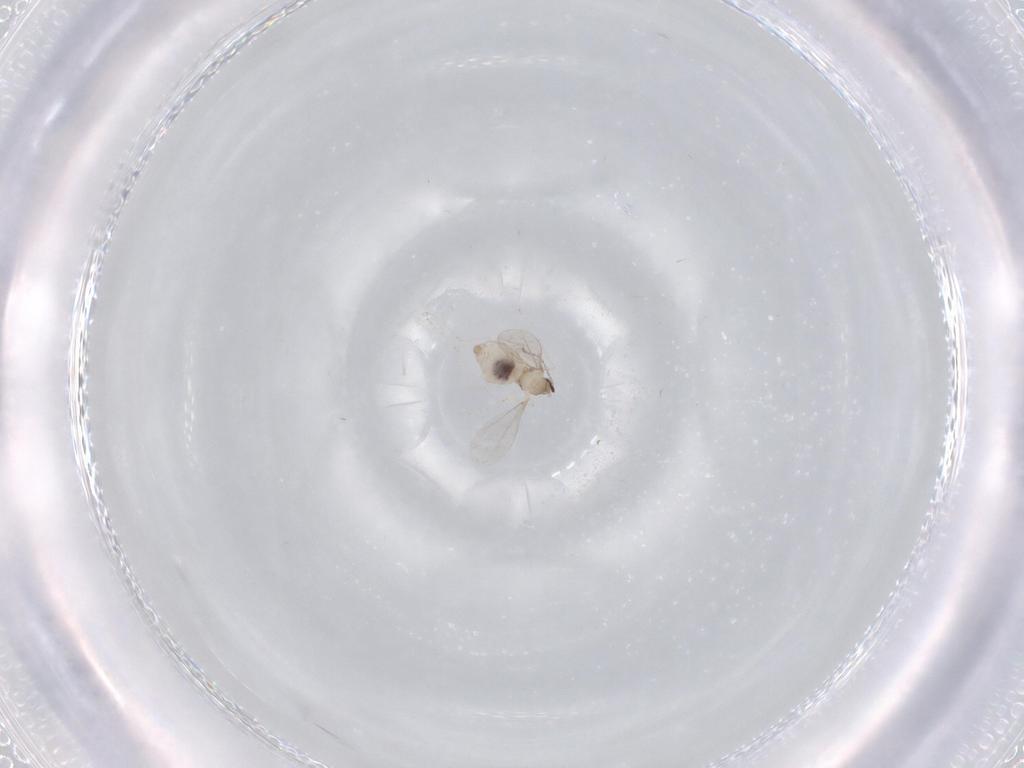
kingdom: Animalia
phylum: Arthropoda
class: Insecta
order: Diptera
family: Cecidomyiidae
